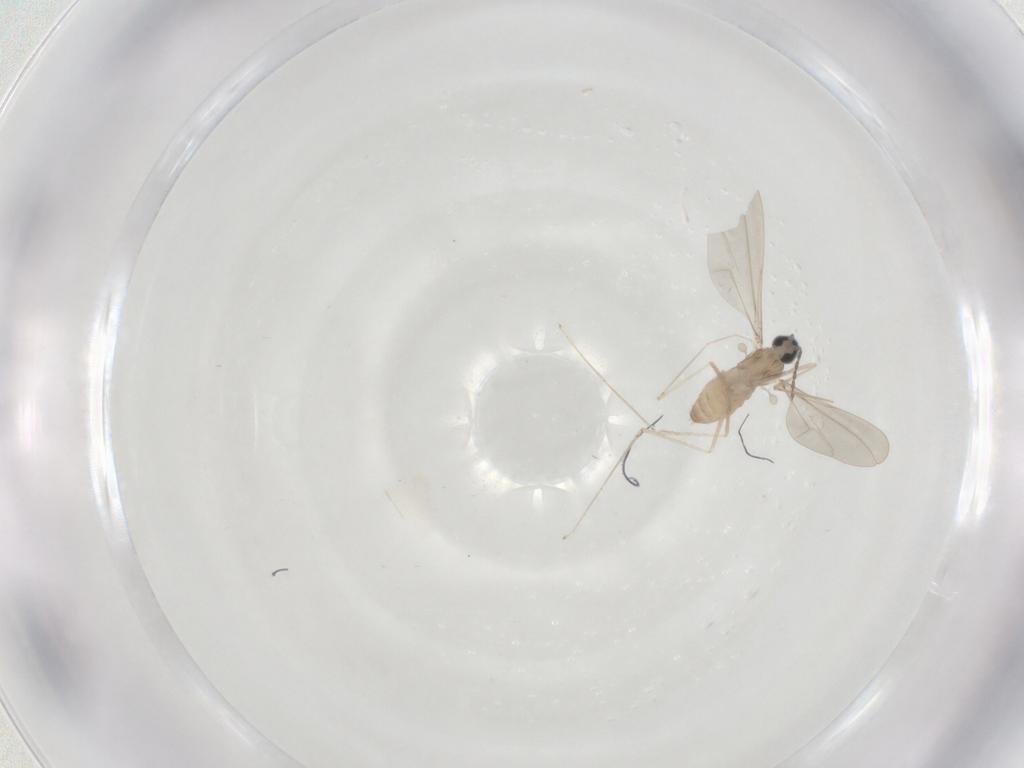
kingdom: Animalia
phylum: Arthropoda
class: Insecta
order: Diptera
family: Cecidomyiidae
